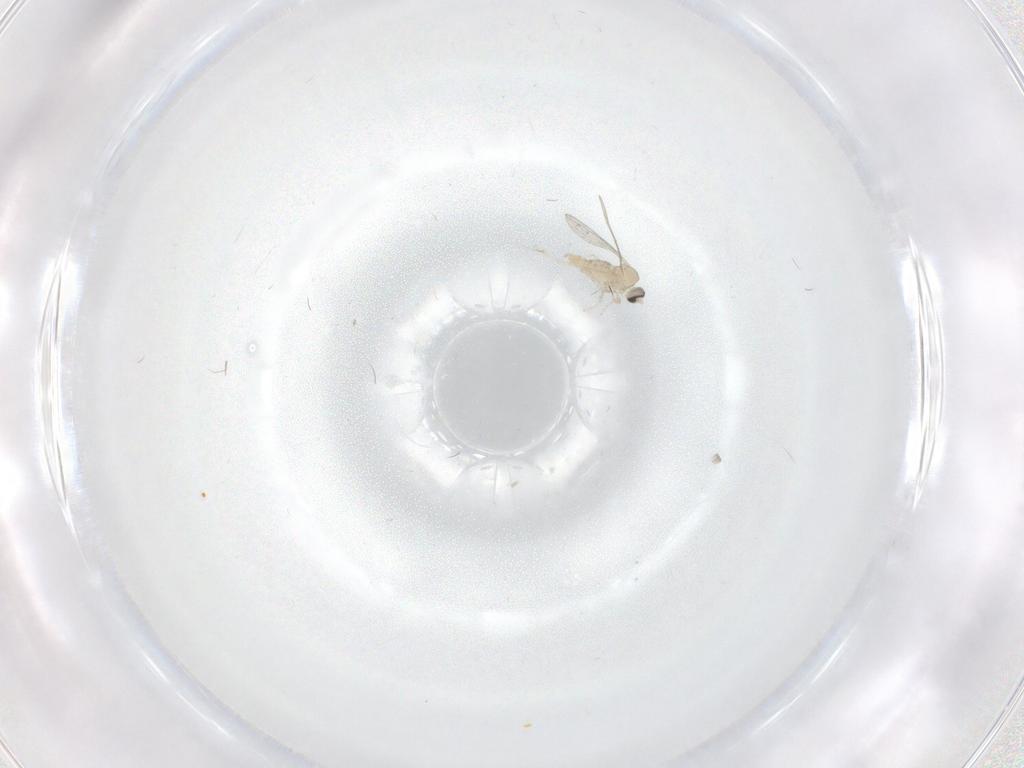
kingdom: Animalia
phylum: Arthropoda
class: Insecta
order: Diptera
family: Cecidomyiidae
